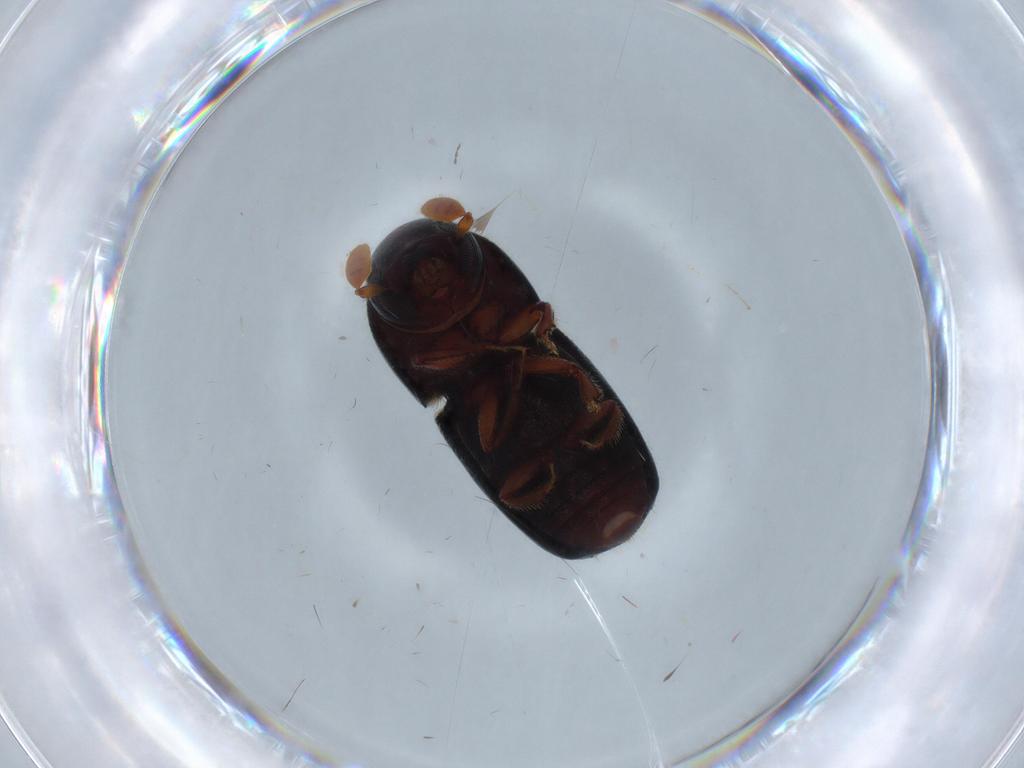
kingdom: Animalia
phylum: Arthropoda
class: Insecta
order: Coleoptera
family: Curculionidae
